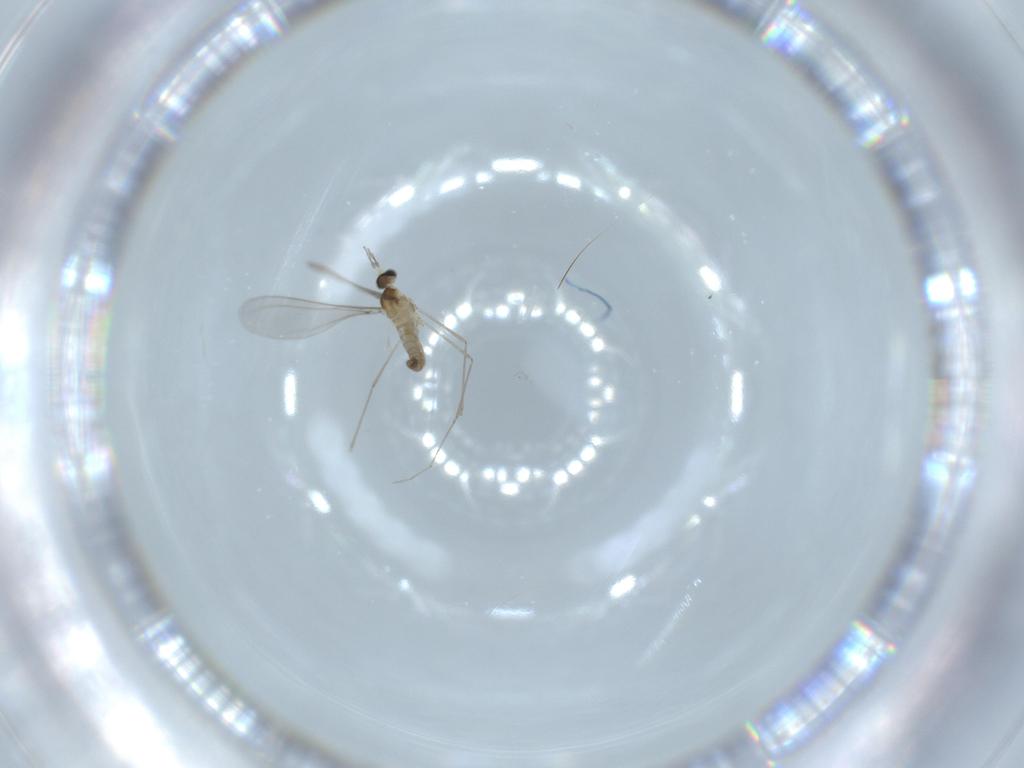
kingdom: Animalia
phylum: Arthropoda
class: Insecta
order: Diptera
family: Cecidomyiidae
